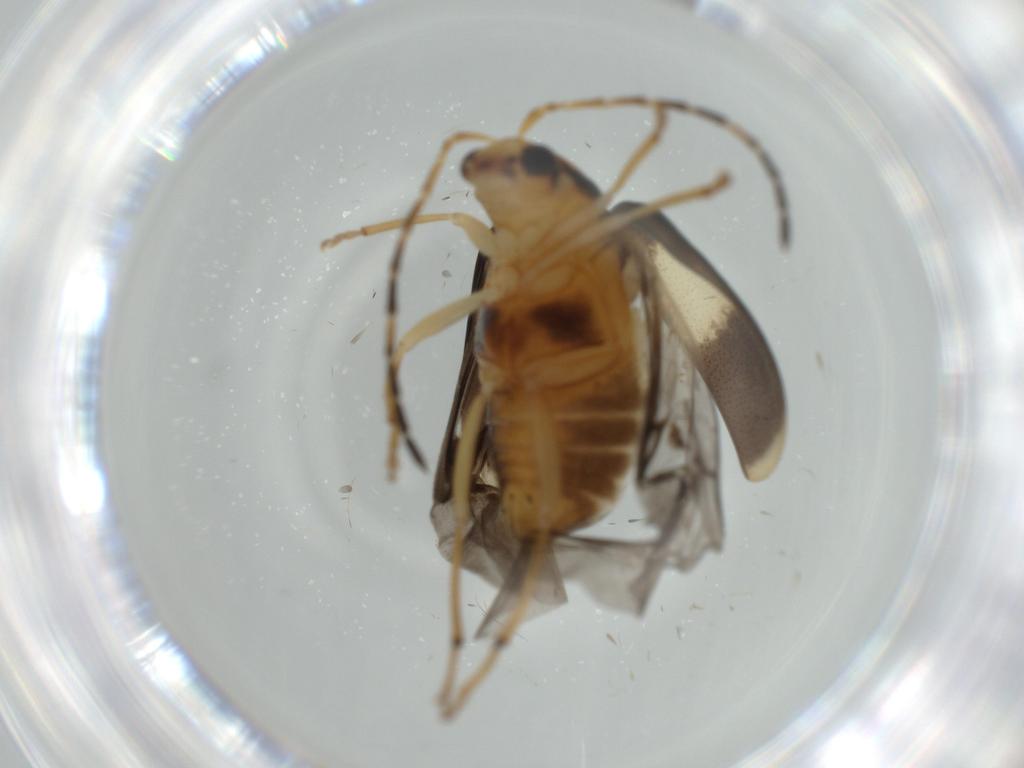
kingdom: Animalia
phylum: Arthropoda
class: Insecta
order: Coleoptera
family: Chrysomelidae
